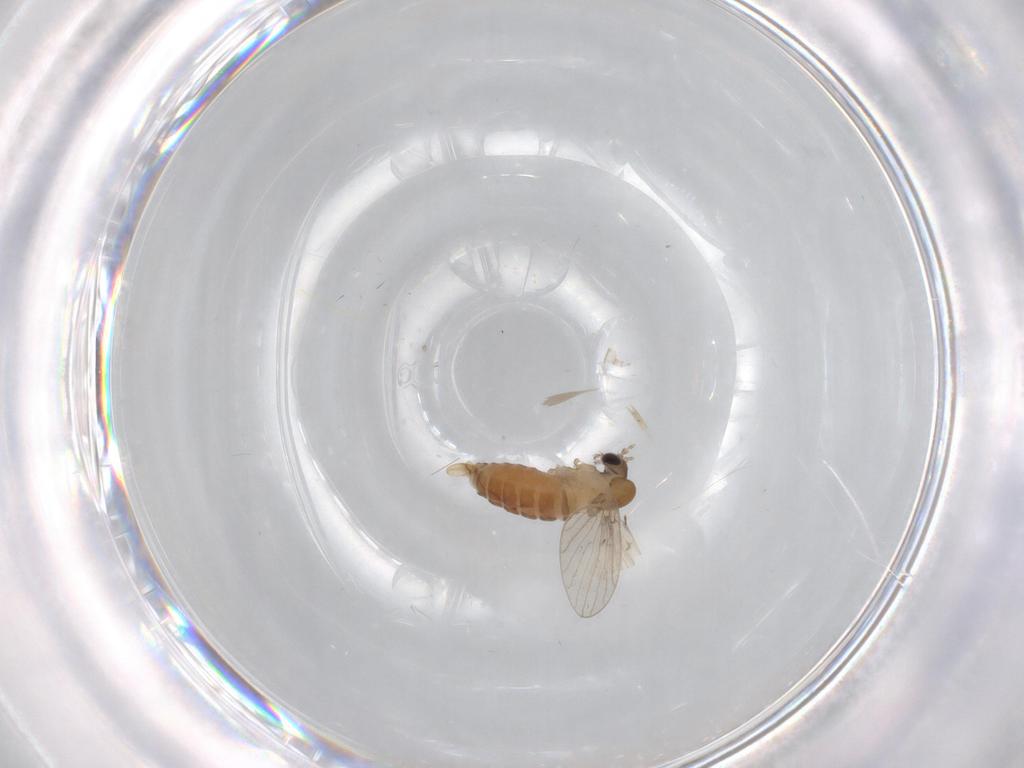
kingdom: Animalia
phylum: Arthropoda
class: Insecta
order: Diptera
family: Psychodidae
